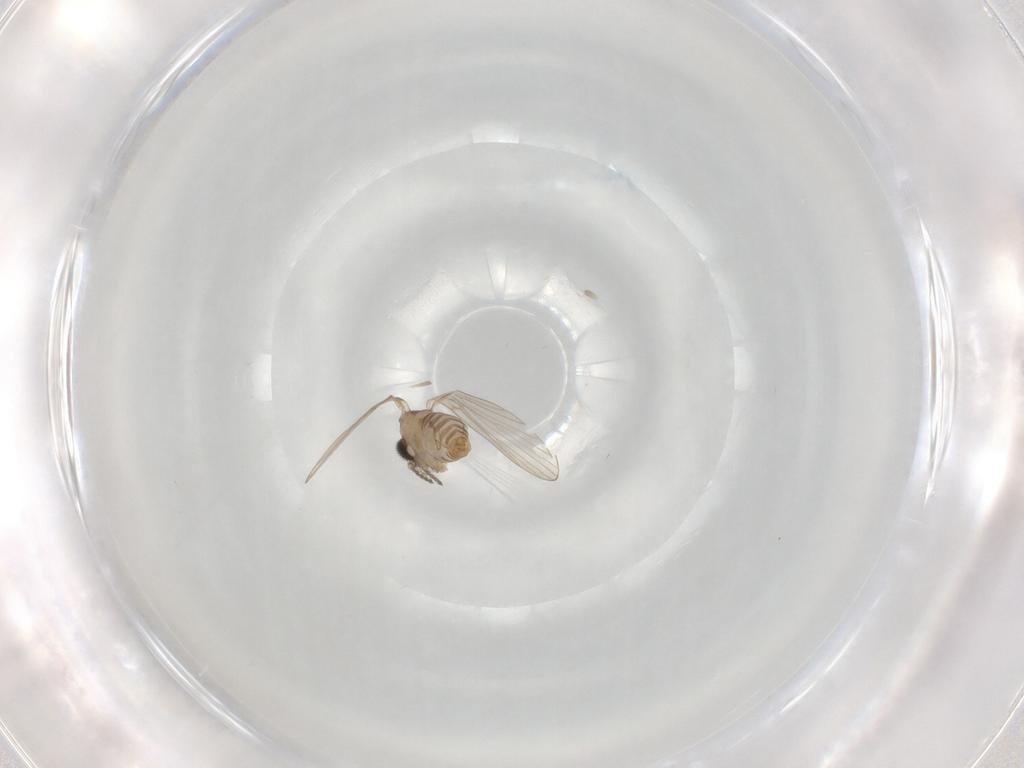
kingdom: Animalia
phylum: Arthropoda
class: Insecta
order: Diptera
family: Psychodidae
